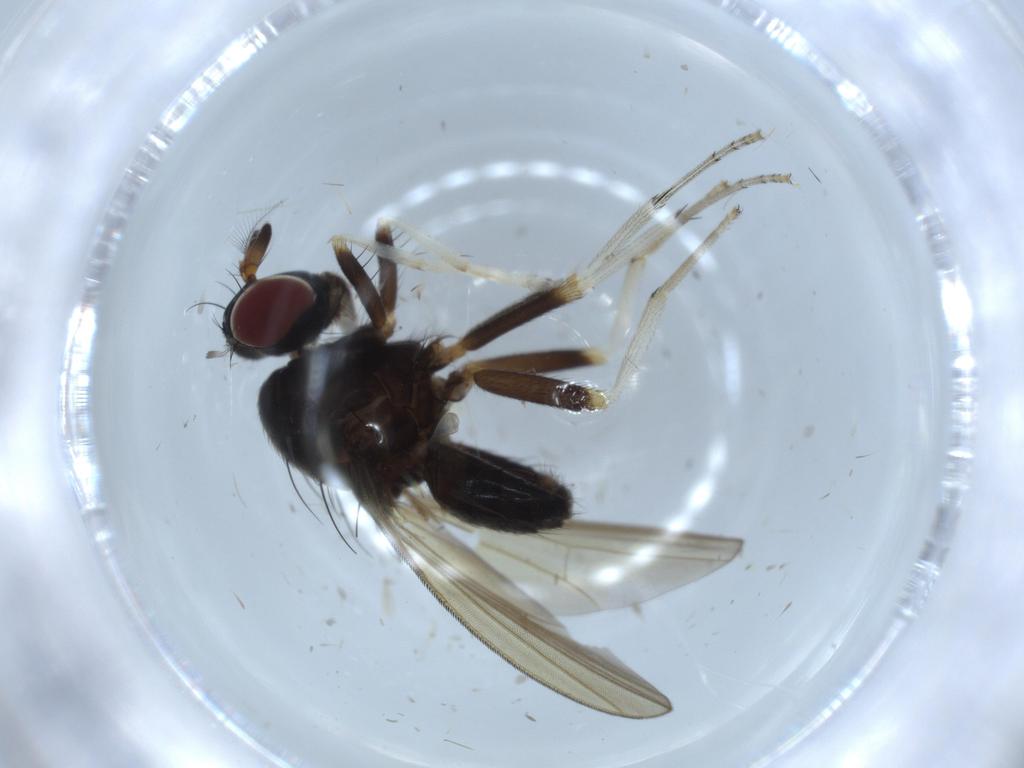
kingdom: Animalia
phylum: Arthropoda
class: Insecta
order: Diptera
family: Lauxaniidae
